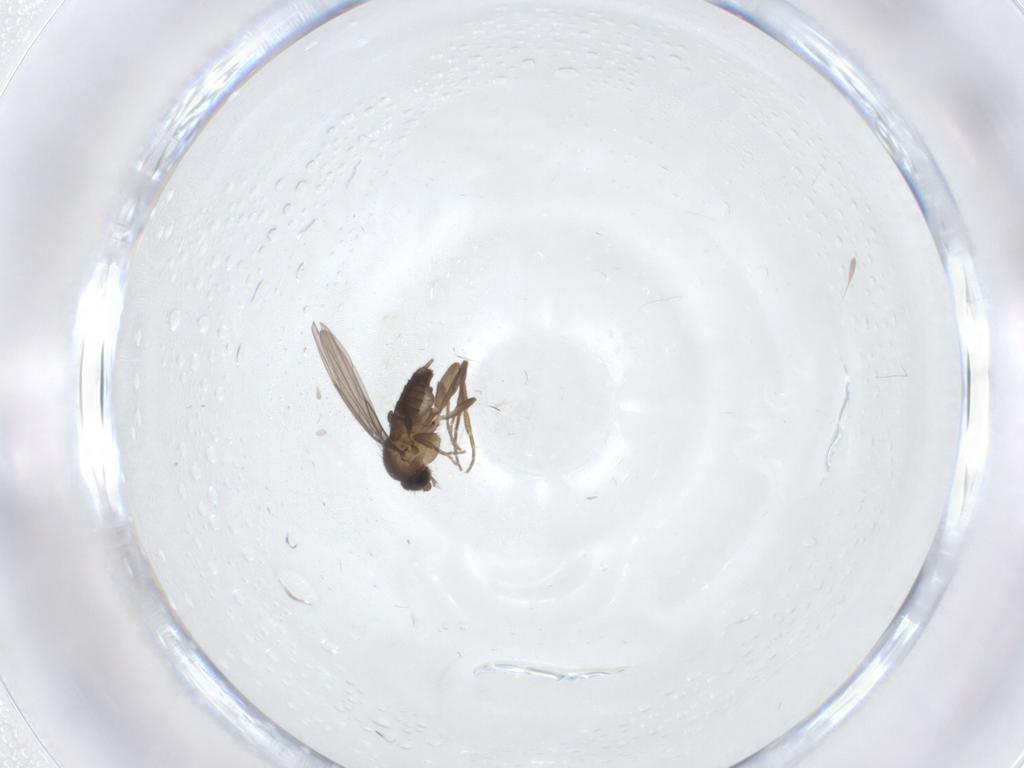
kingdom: Animalia
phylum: Arthropoda
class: Insecta
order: Diptera
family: Phoridae
